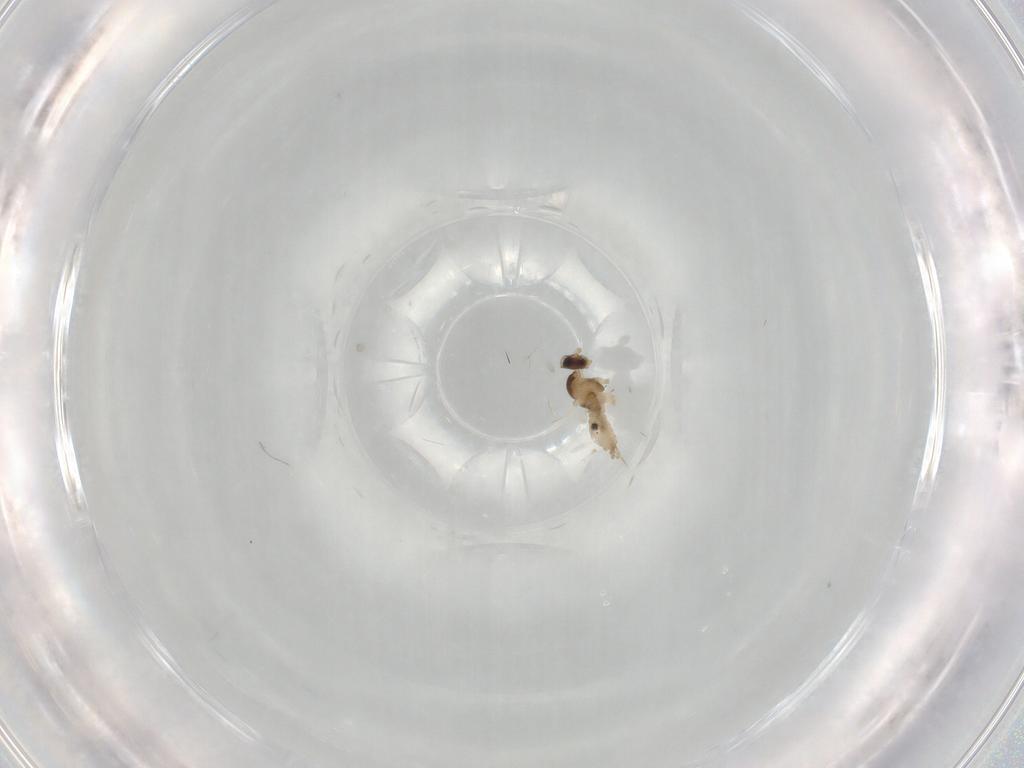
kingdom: Animalia
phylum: Arthropoda
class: Insecta
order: Diptera
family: Cecidomyiidae
